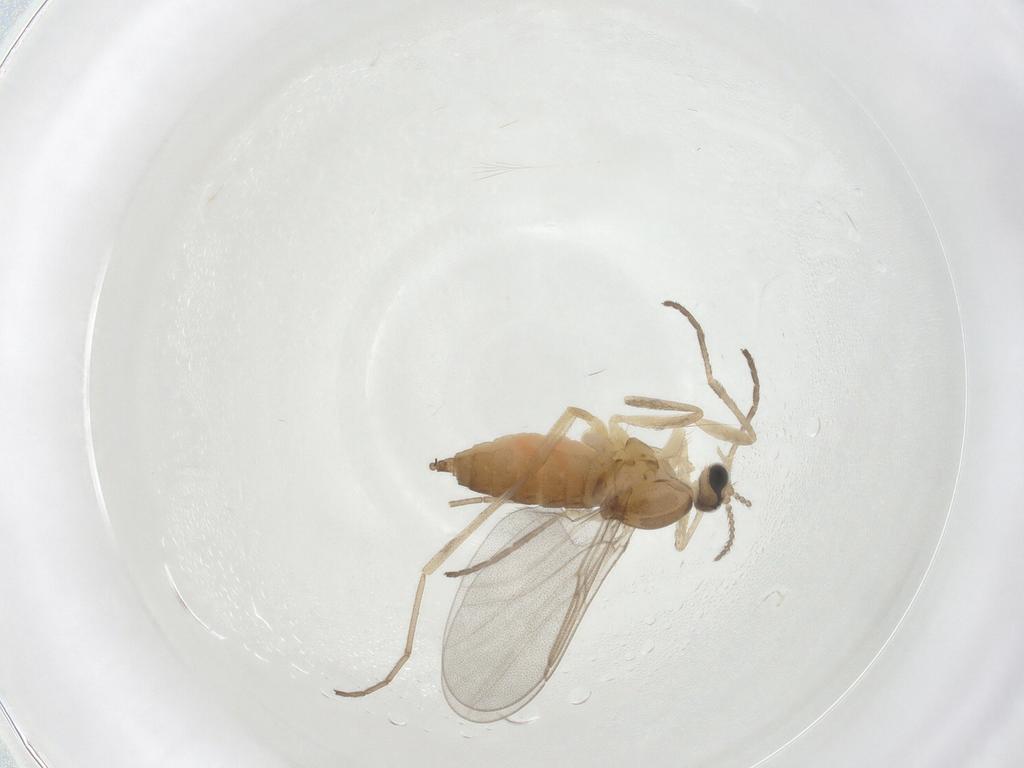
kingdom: Animalia
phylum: Arthropoda
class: Insecta
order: Diptera
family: Cecidomyiidae
